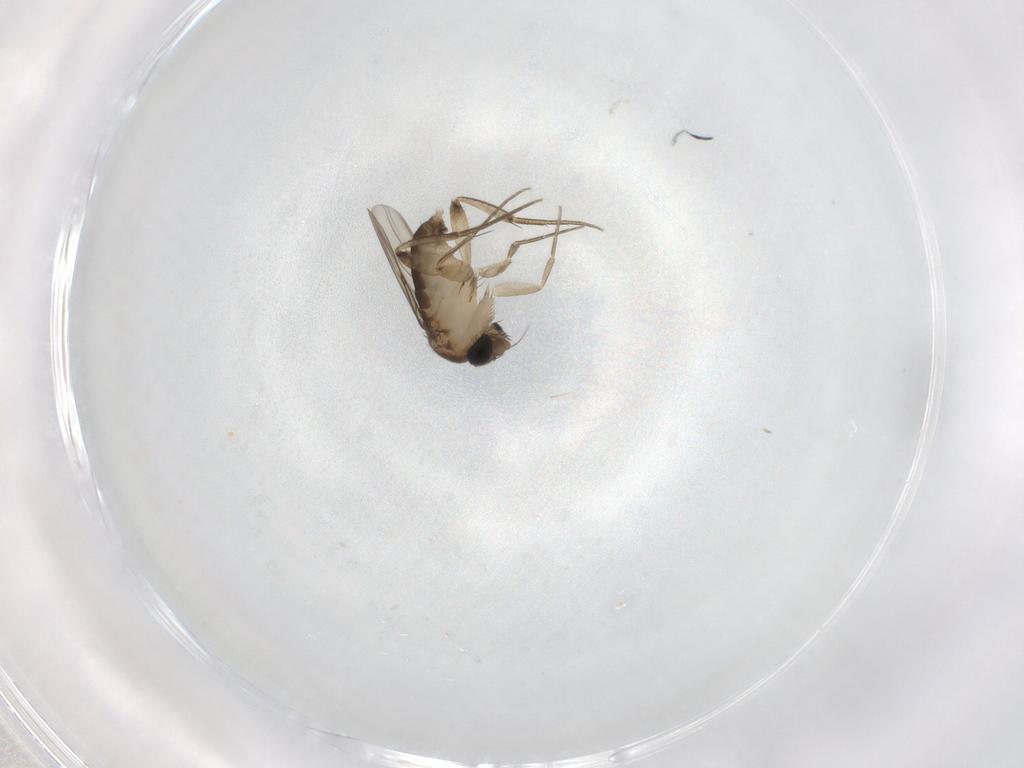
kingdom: Animalia
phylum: Arthropoda
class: Insecta
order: Diptera
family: Phoridae
